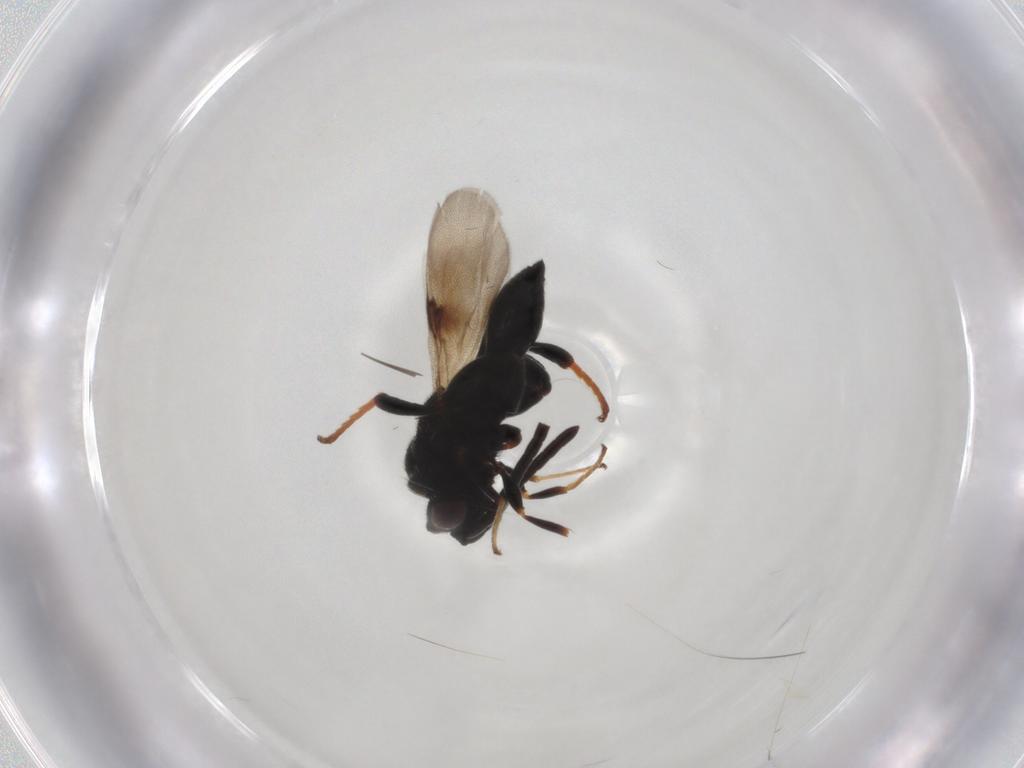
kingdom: Animalia
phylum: Arthropoda
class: Insecta
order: Hymenoptera
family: Chalcididae
